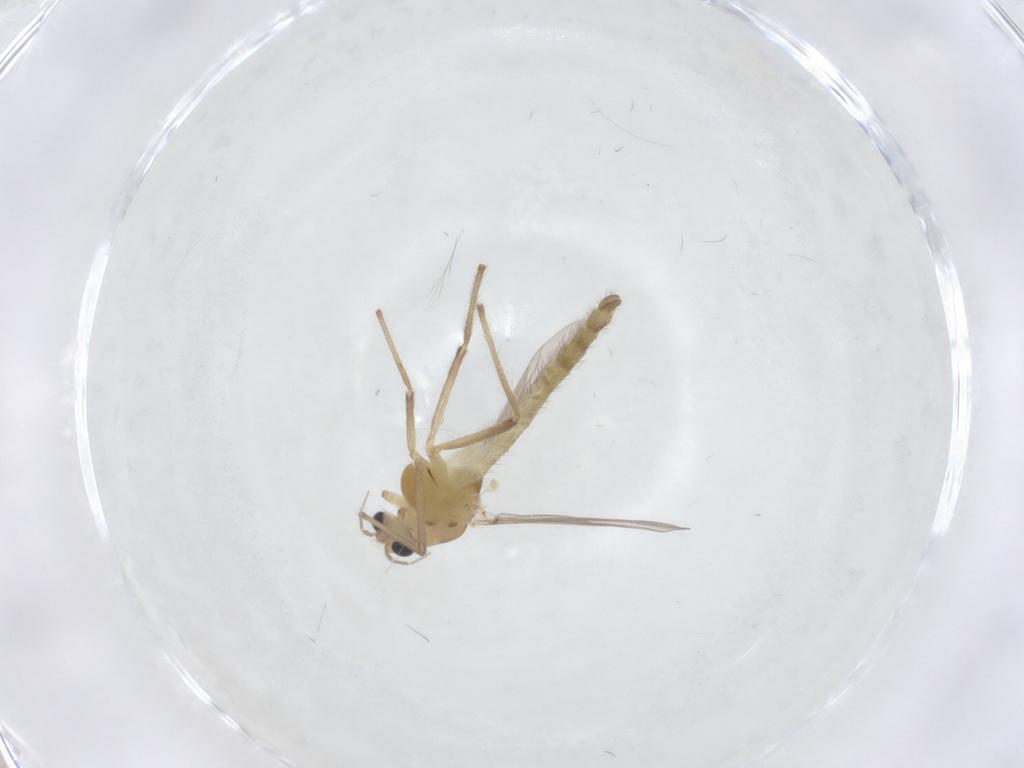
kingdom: Animalia
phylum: Arthropoda
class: Insecta
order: Diptera
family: Chironomidae
